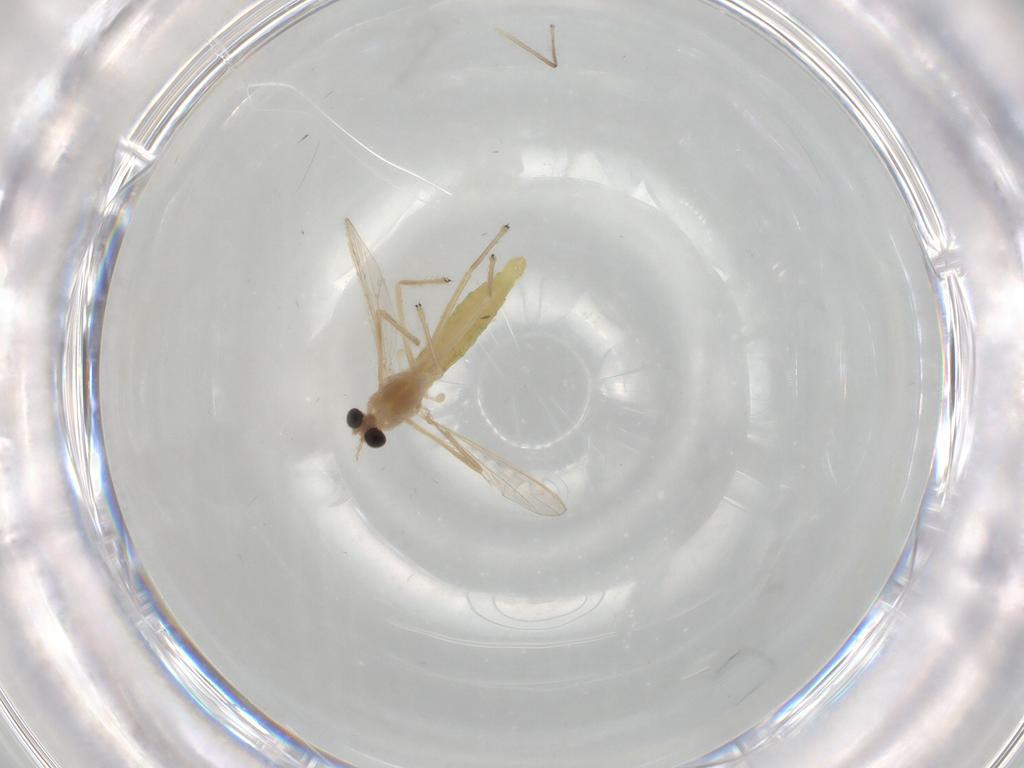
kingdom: Animalia
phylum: Arthropoda
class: Insecta
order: Diptera
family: Chironomidae
